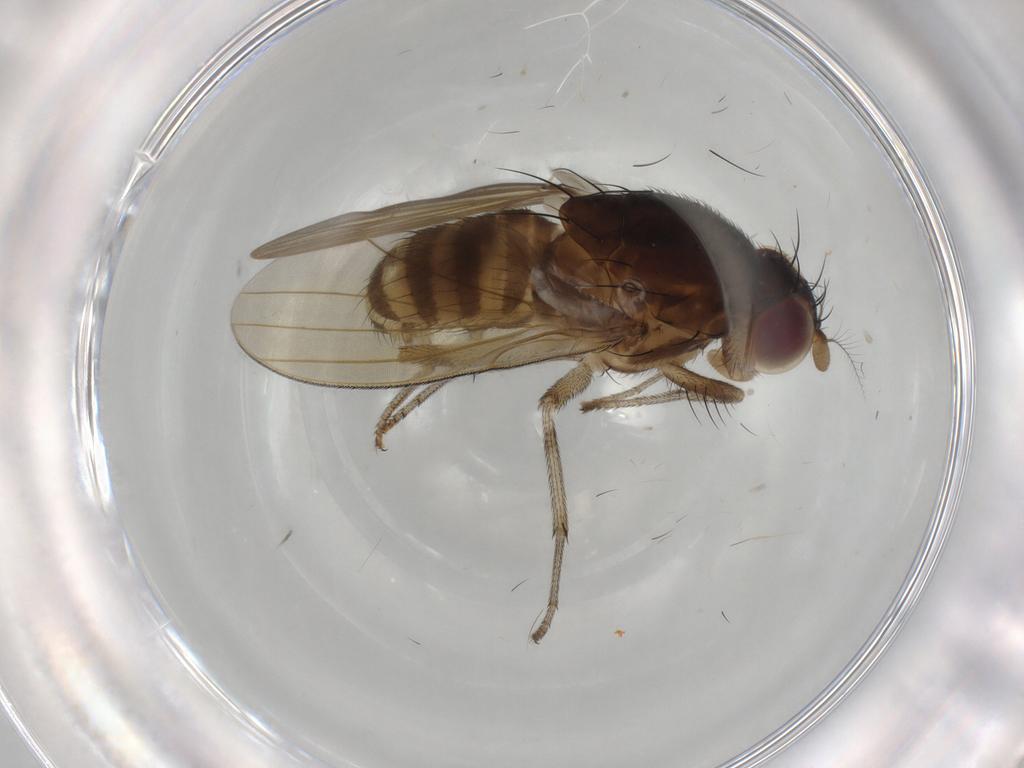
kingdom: Animalia
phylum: Arthropoda
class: Insecta
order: Diptera
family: Lauxaniidae
